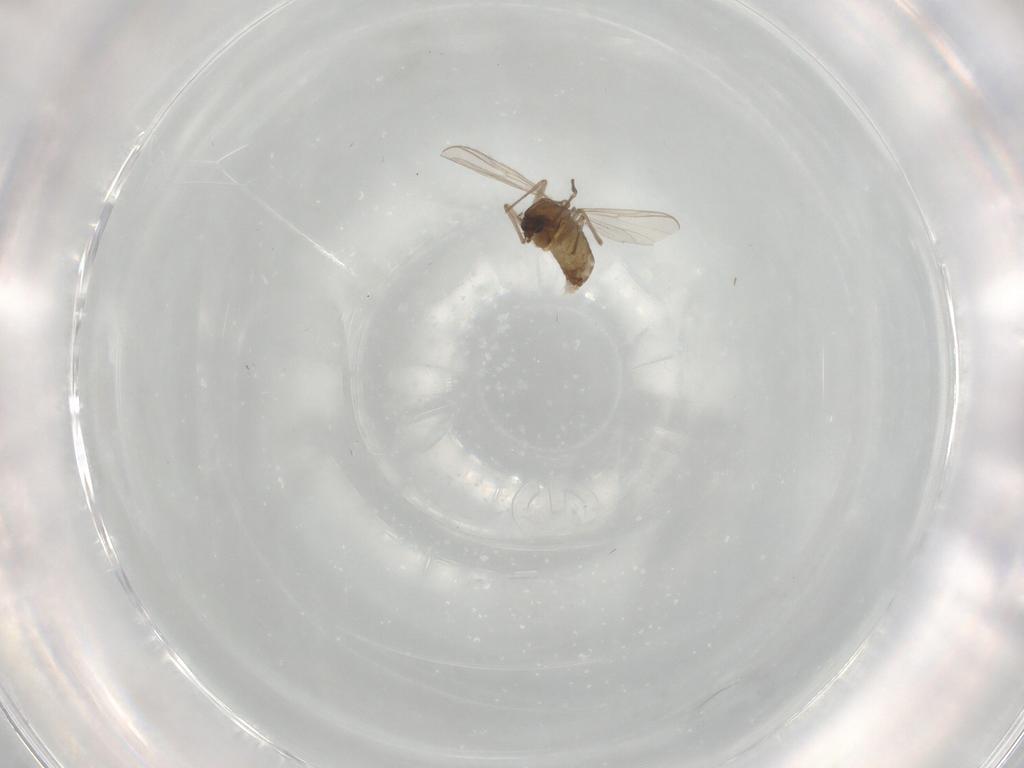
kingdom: Animalia
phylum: Arthropoda
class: Insecta
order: Diptera
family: Chironomidae
